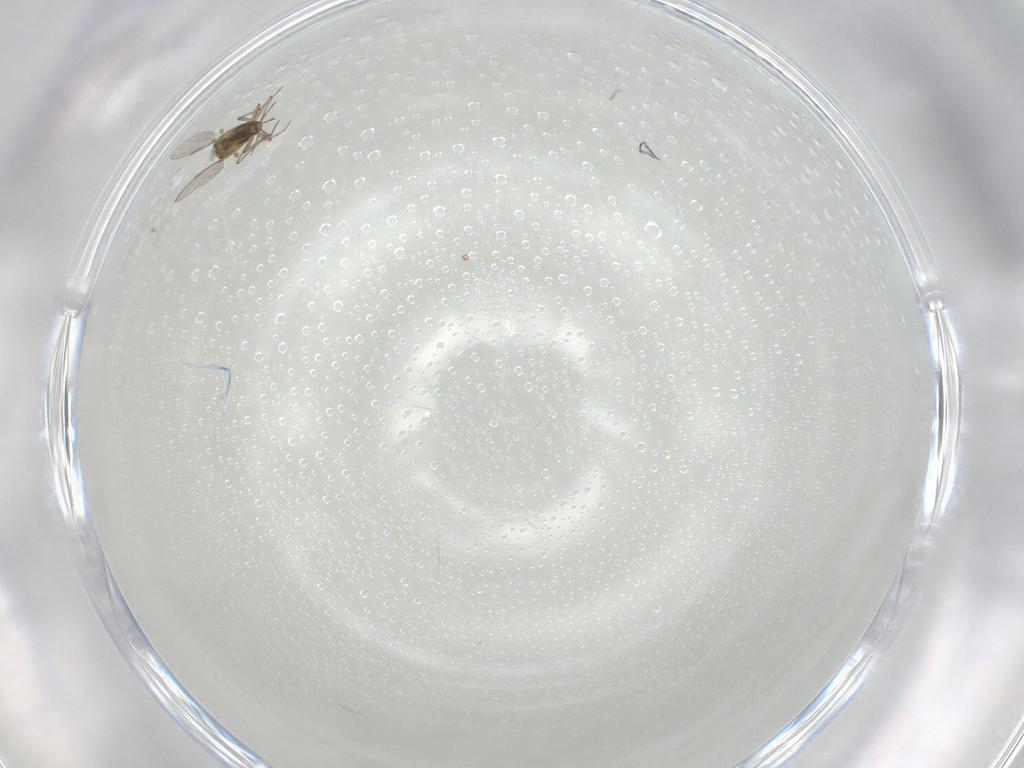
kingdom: Animalia
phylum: Arthropoda
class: Insecta
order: Diptera
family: Chironomidae
